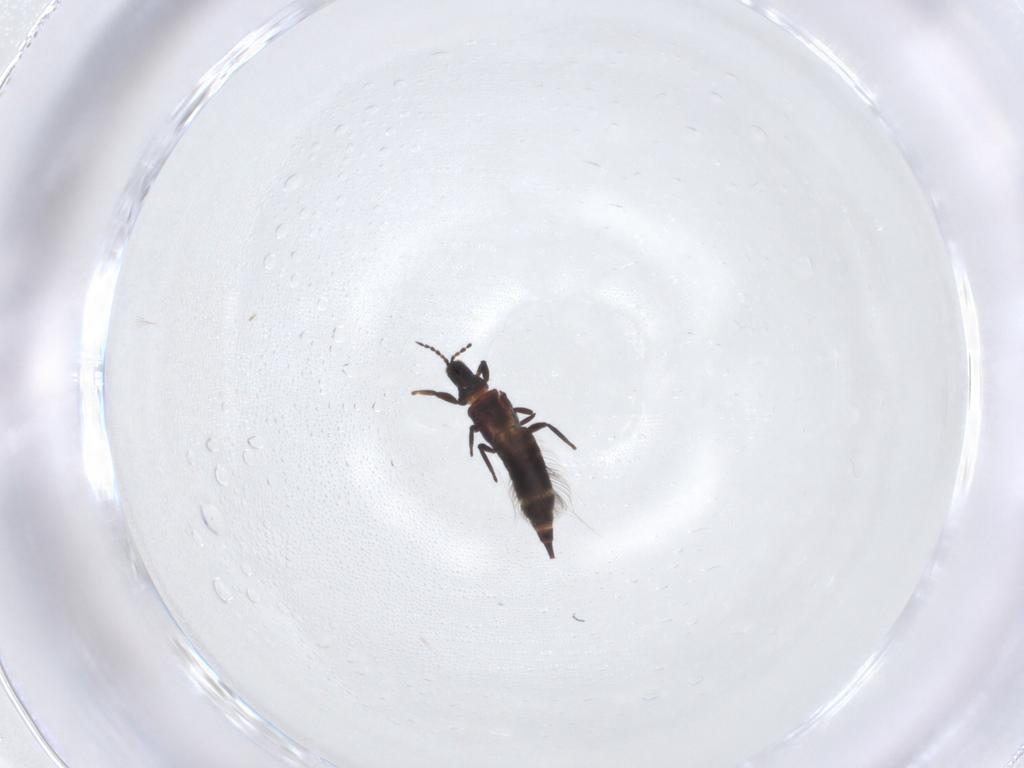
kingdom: Animalia
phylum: Arthropoda
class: Insecta
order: Thysanoptera
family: Phlaeothripidae
